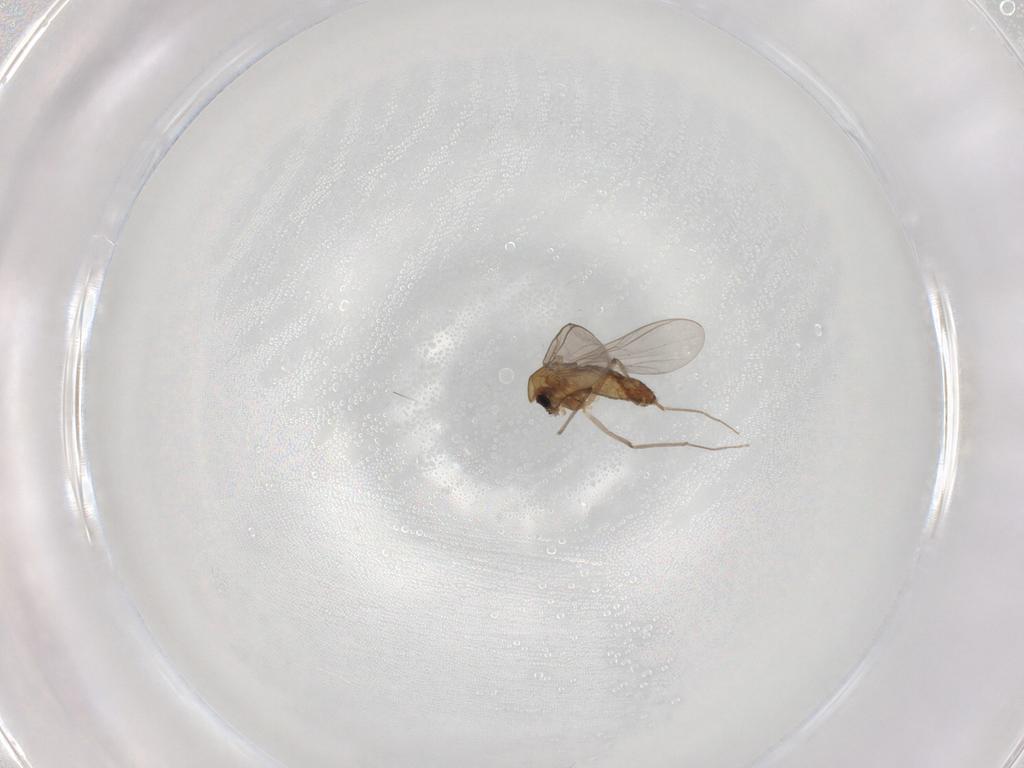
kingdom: Animalia
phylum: Arthropoda
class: Insecta
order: Diptera
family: Chironomidae
